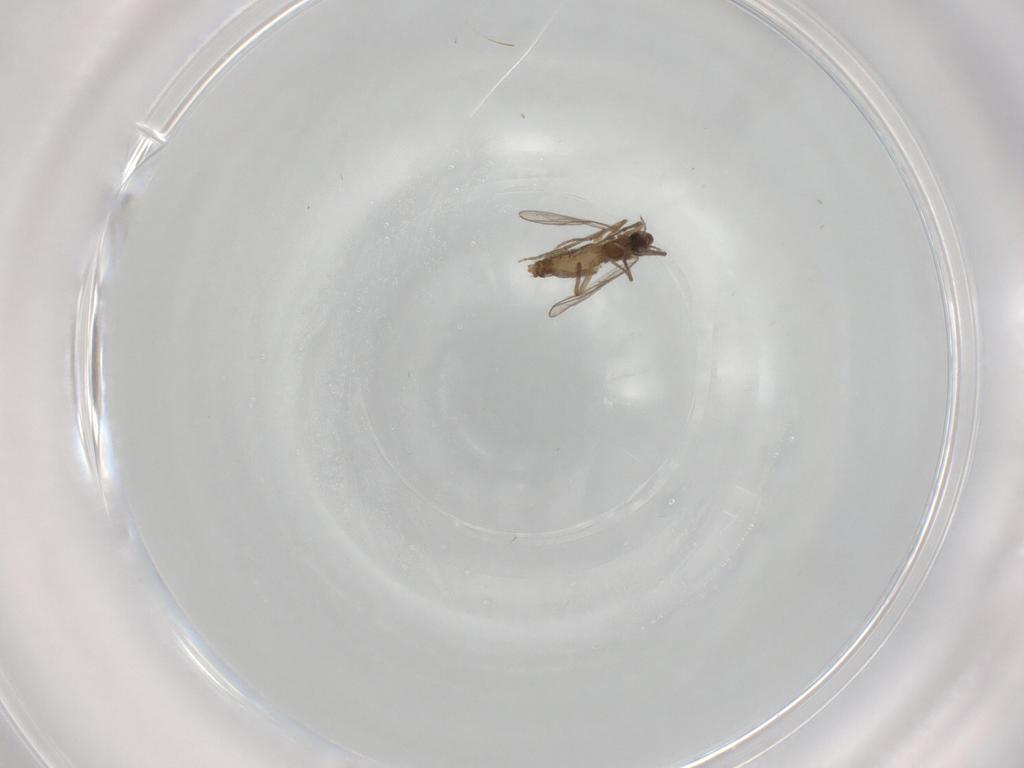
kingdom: Animalia
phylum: Arthropoda
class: Insecta
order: Diptera
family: Chironomidae
